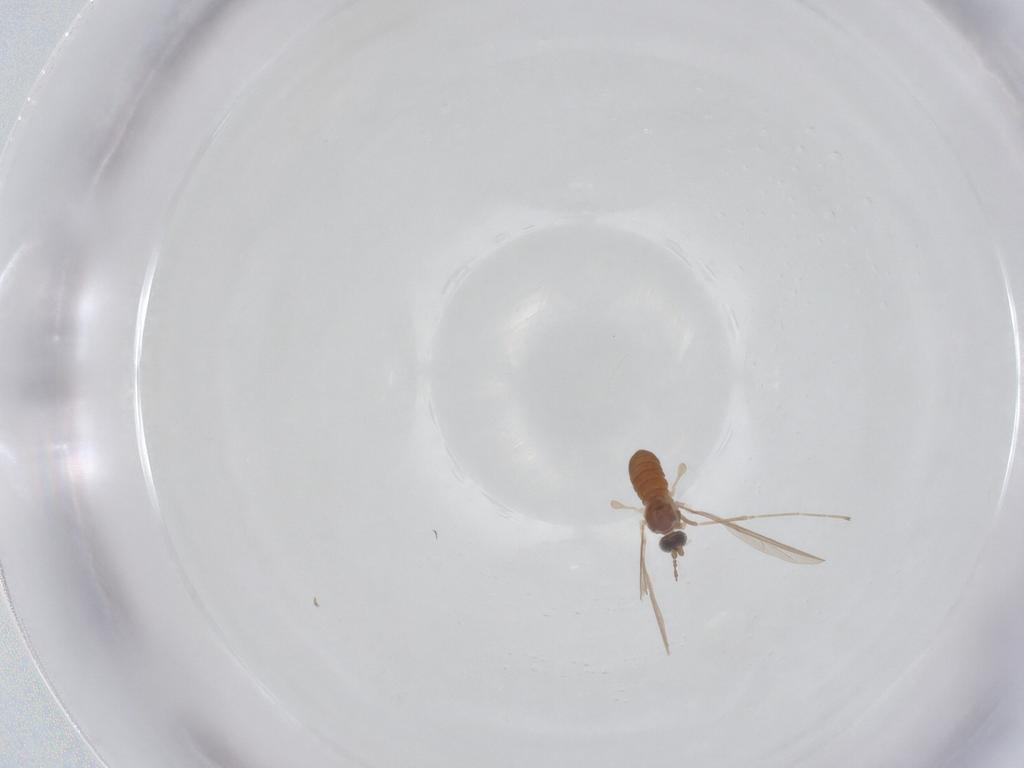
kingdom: Animalia
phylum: Arthropoda
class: Insecta
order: Diptera
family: Cecidomyiidae
